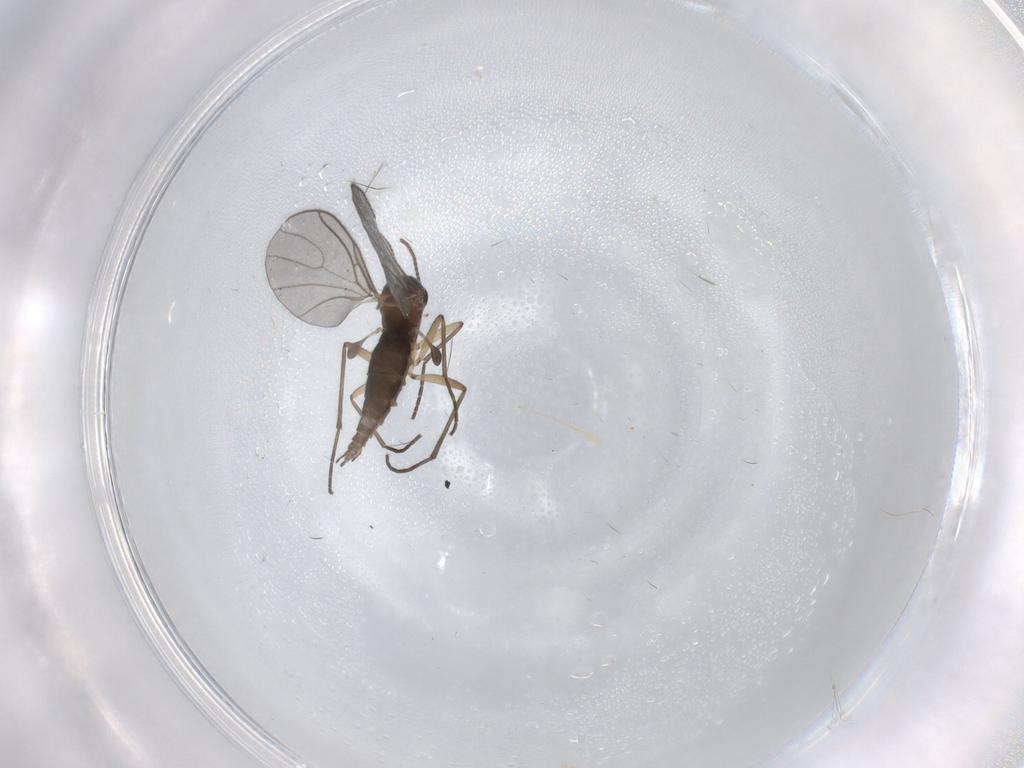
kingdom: Animalia
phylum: Arthropoda
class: Insecta
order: Diptera
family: Sciaridae
